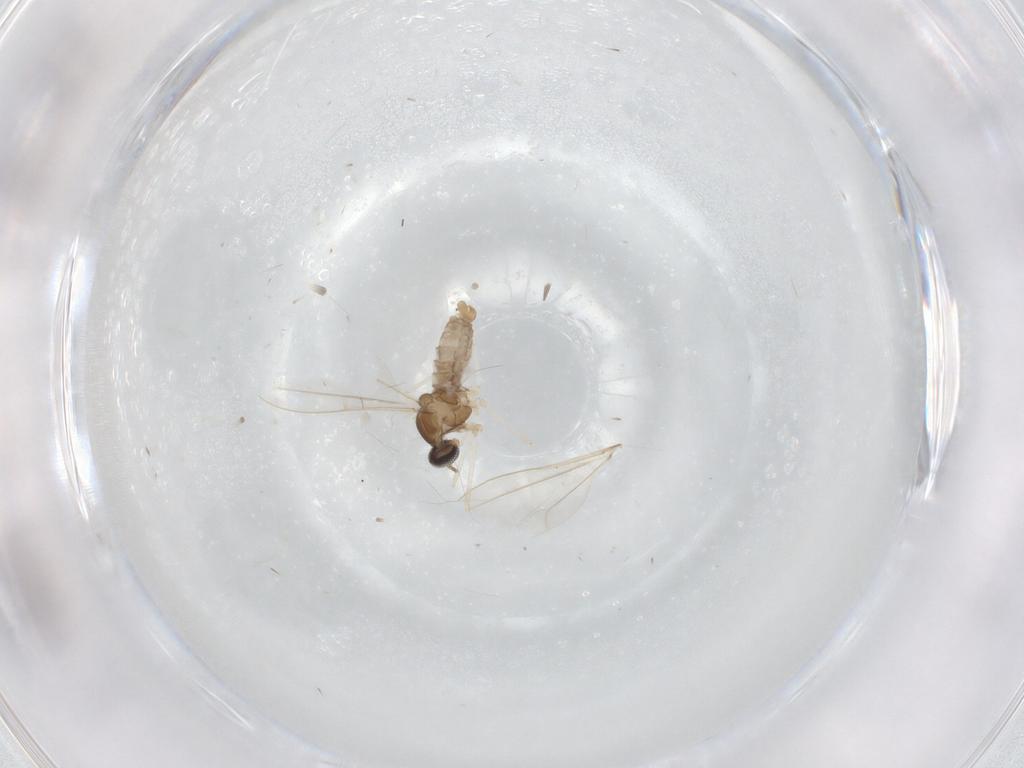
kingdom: Animalia
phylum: Arthropoda
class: Insecta
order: Diptera
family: Cecidomyiidae
